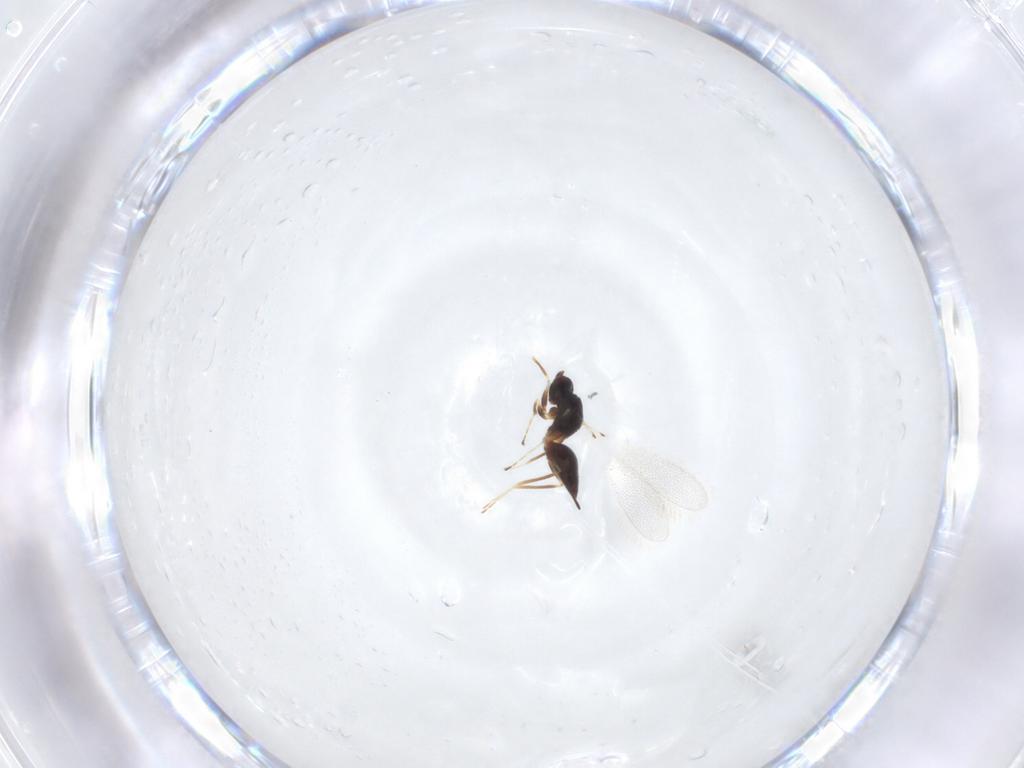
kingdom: Animalia
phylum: Arthropoda
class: Insecta
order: Hymenoptera
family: Mymaridae
